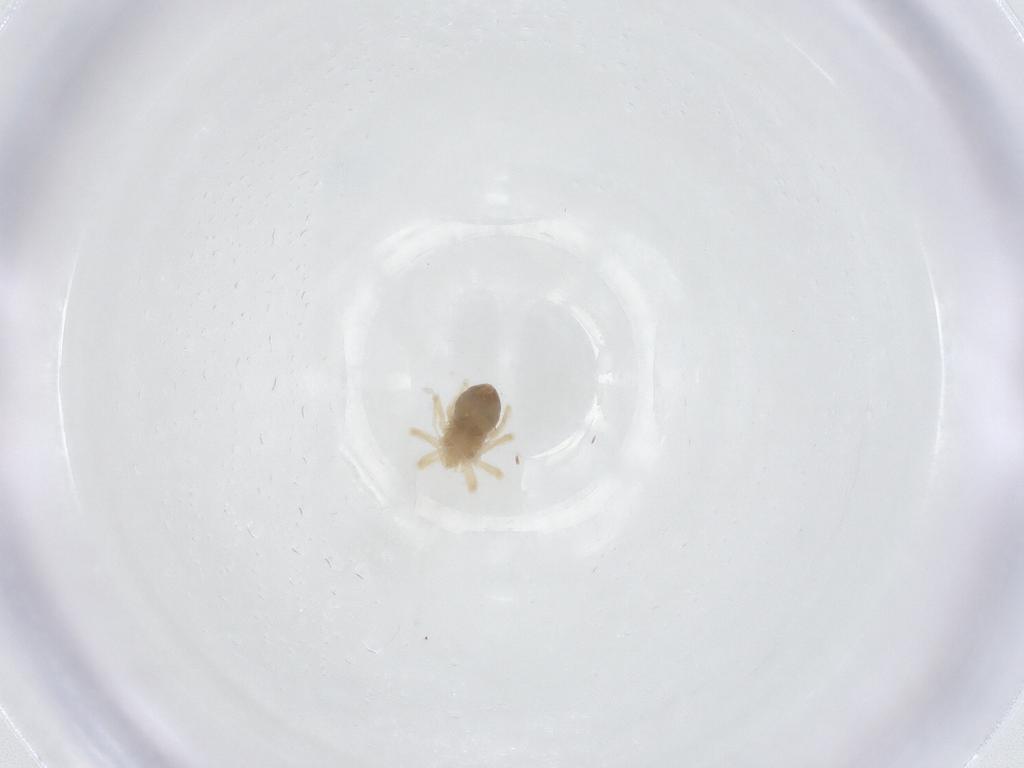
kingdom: Animalia
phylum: Arthropoda
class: Arachnida
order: Trombidiformes
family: Anystidae
